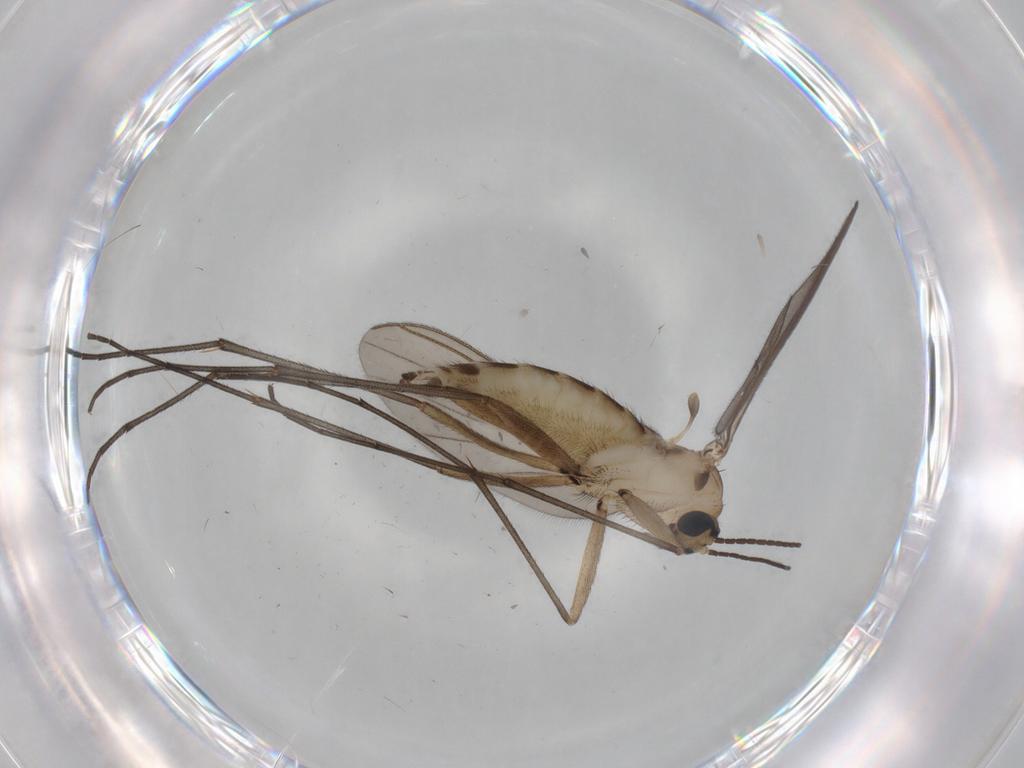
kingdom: Animalia
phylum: Arthropoda
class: Insecta
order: Diptera
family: Sciaridae
